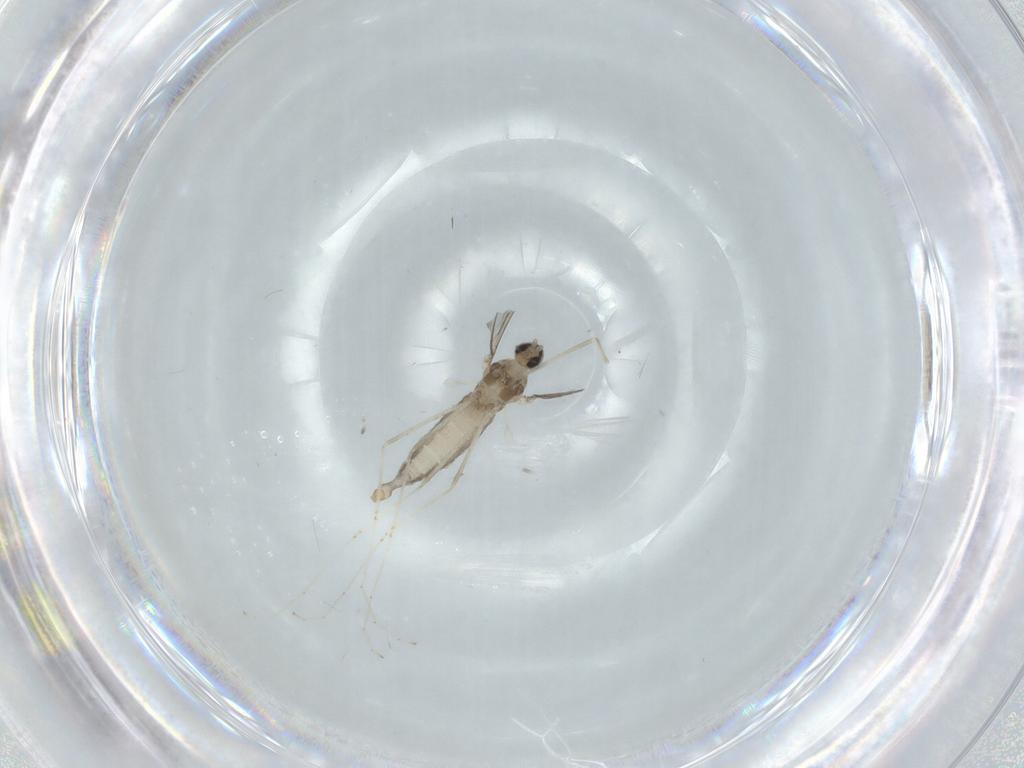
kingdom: Animalia
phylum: Arthropoda
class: Insecta
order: Diptera
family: Cecidomyiidae
